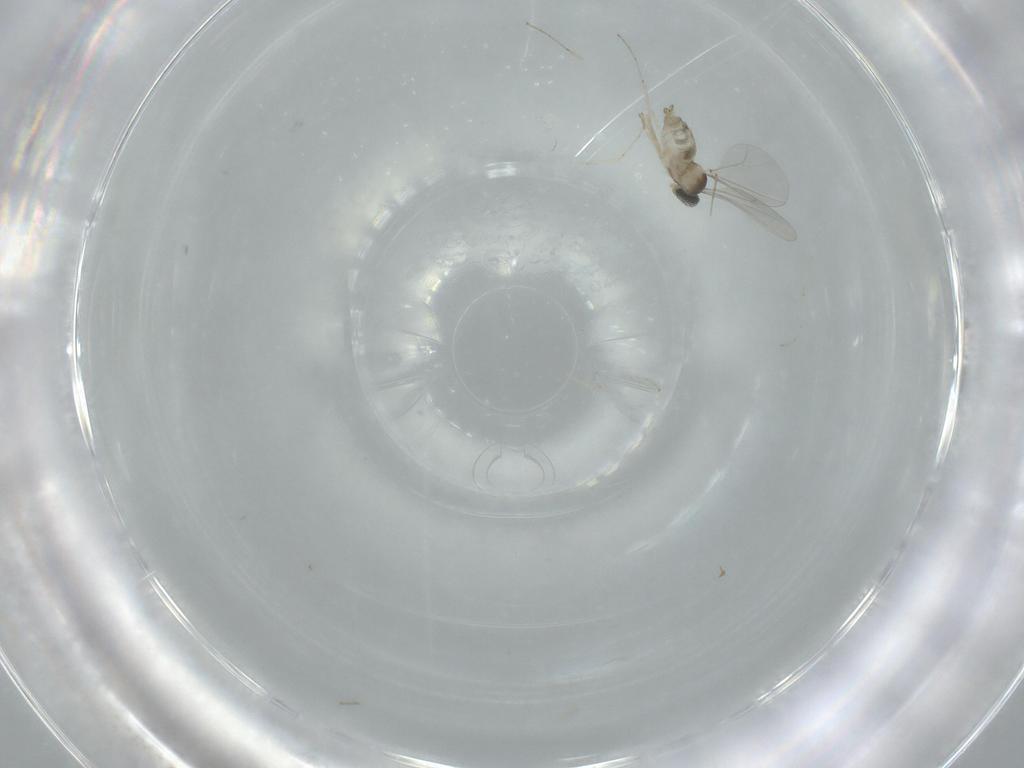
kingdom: Animalia
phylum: Arthropoda
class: Insecta
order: Diptera
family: Cecidomyiidae
